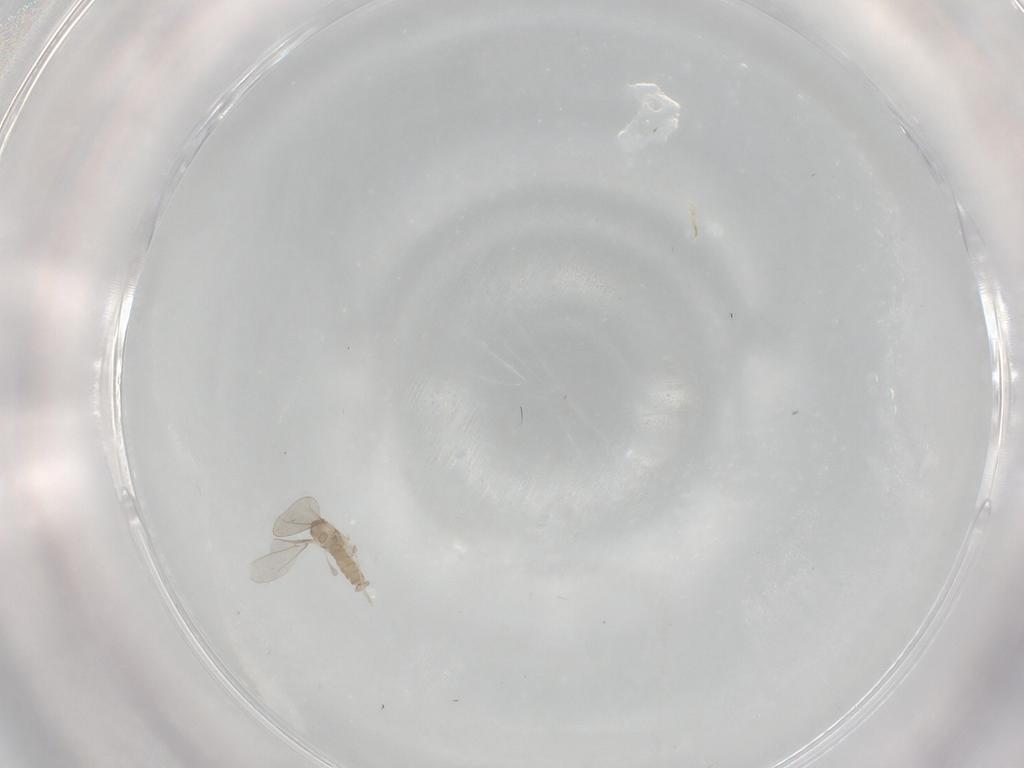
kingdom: Animalia
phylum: Arthropoda
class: Insecta
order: Diptera
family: Cecidomyiidae
